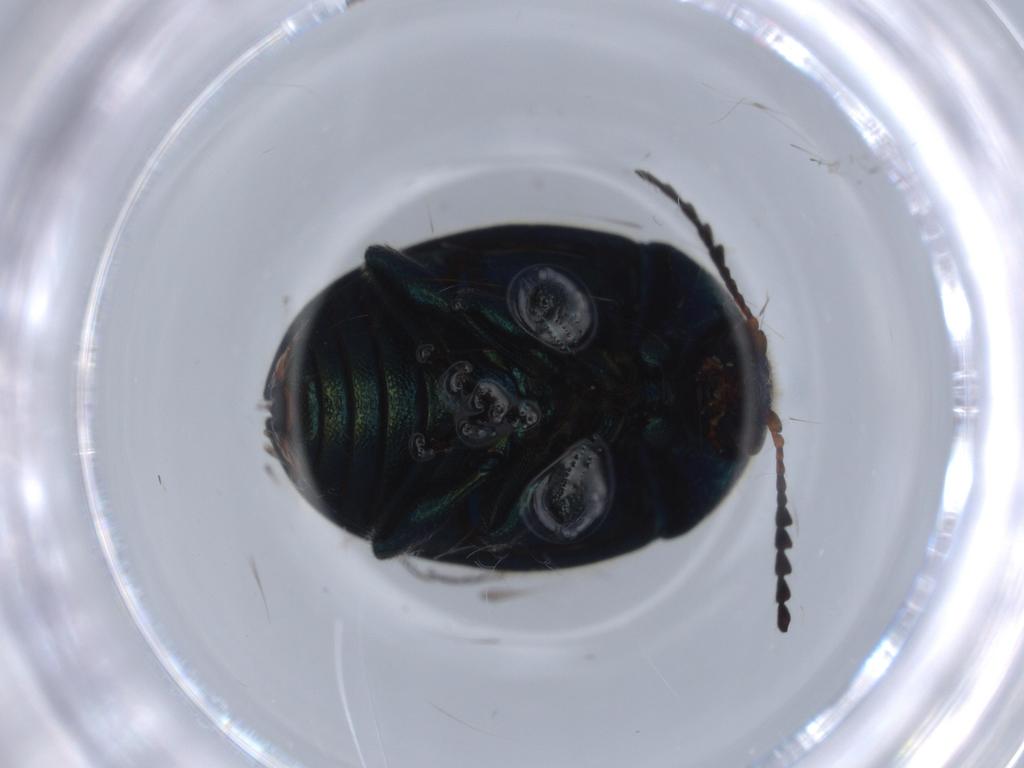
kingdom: Animalia
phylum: Arthropoda
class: Insecta
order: Coleoptera
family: Chrysomelidae
